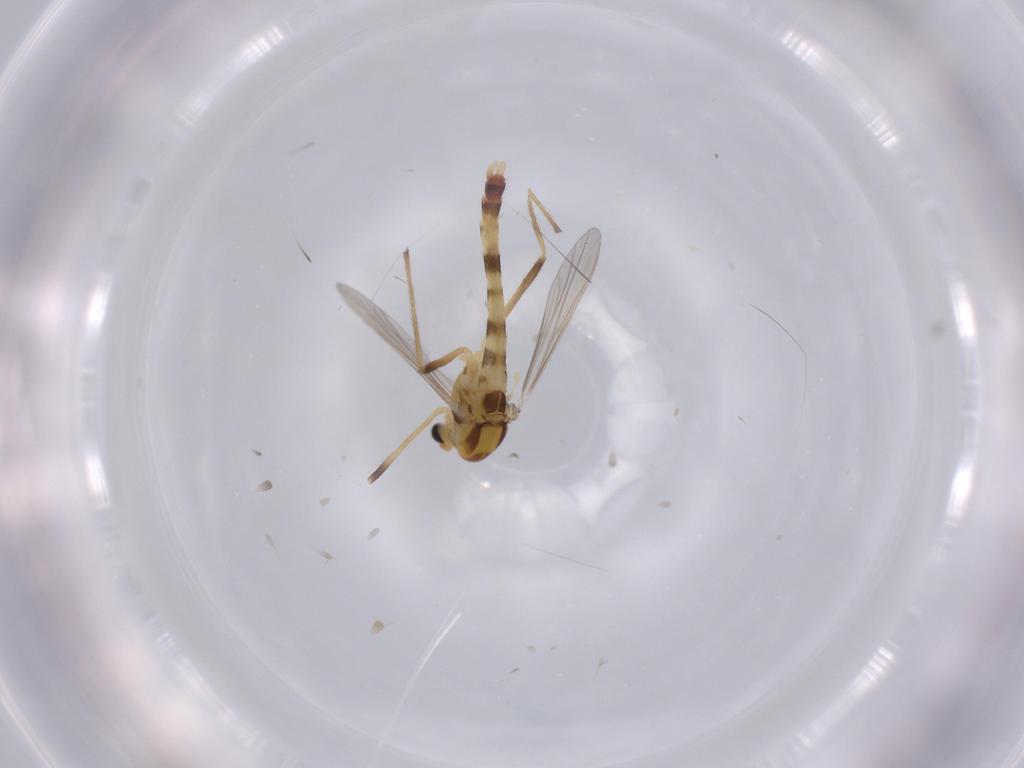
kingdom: Animalia
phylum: Arthropoda
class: Insecta
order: Diptera
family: Chironomidae
